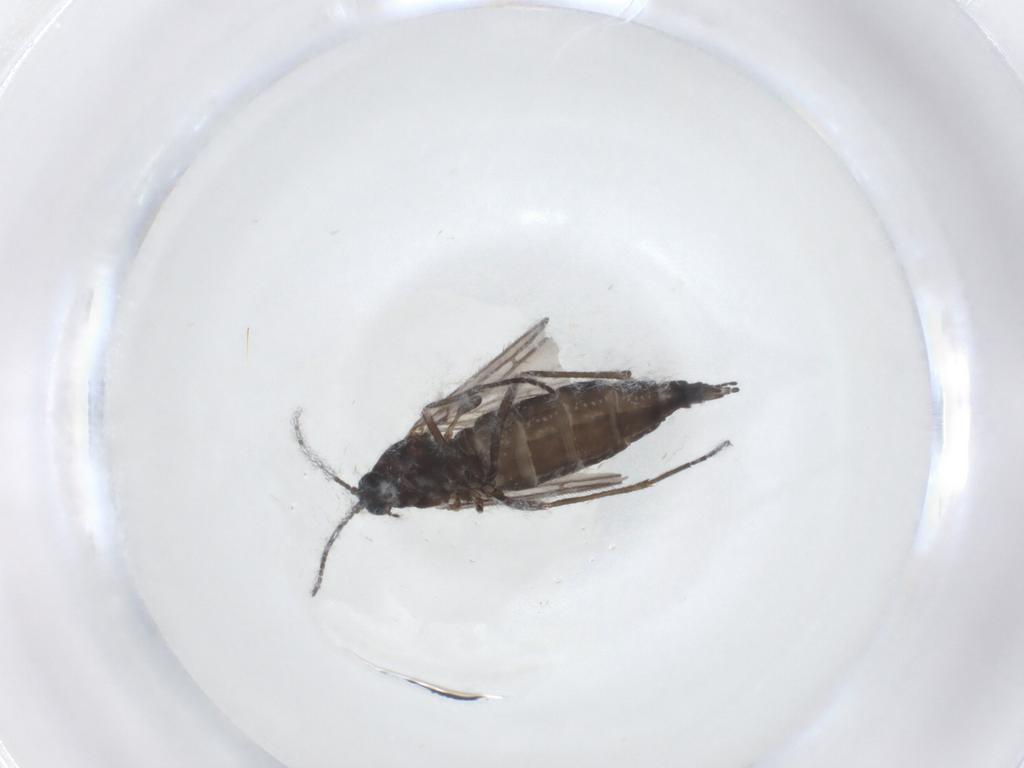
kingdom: Animalia
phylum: Arthropoda
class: Insecta
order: Diptera
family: Sciaridae
